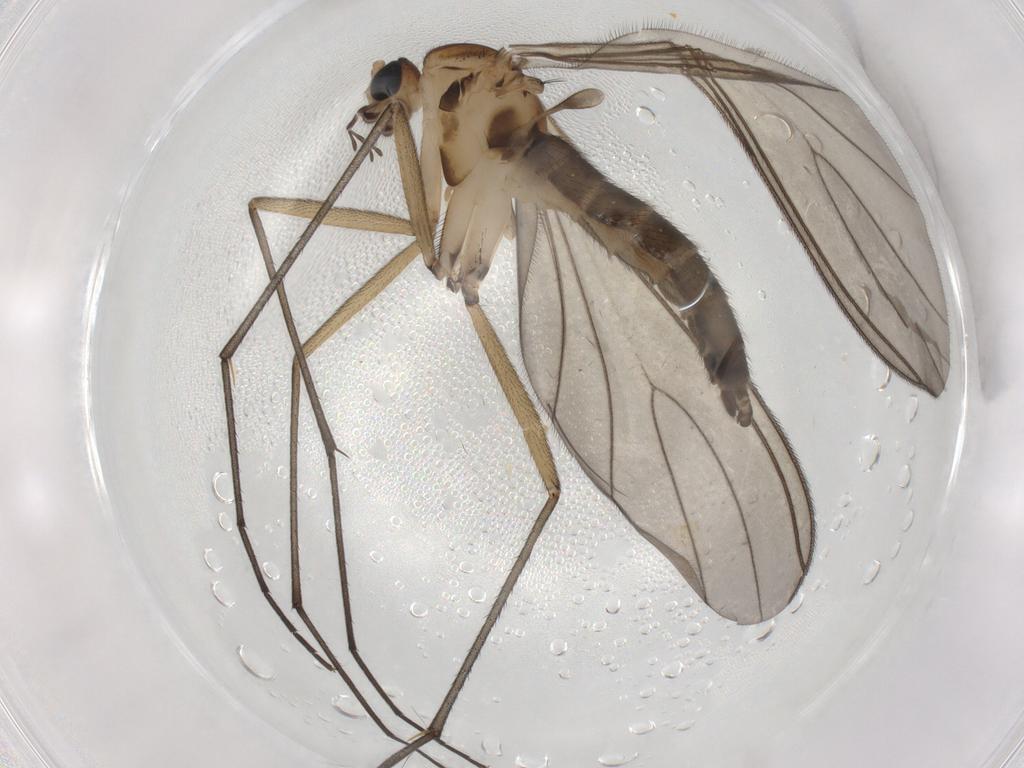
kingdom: Animalia
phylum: Arthropoda
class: Insecta
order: Diptera
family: Sciaridae
